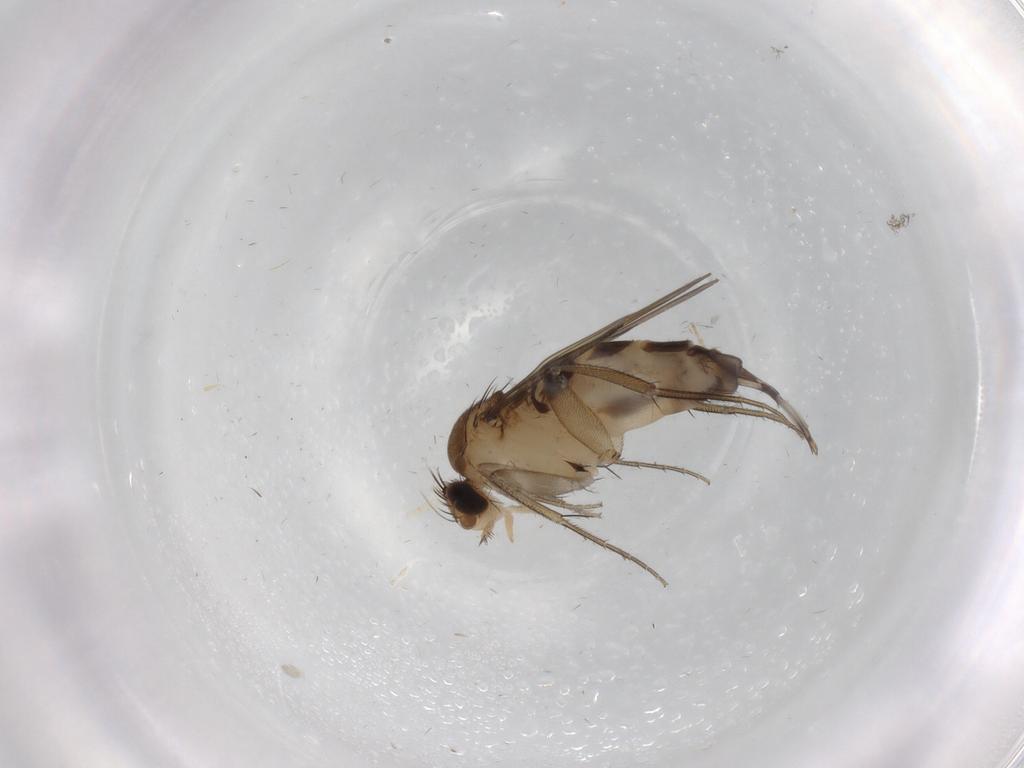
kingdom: Animalia
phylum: Arthropoda
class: Insecta
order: Diptera
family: Phoridae
